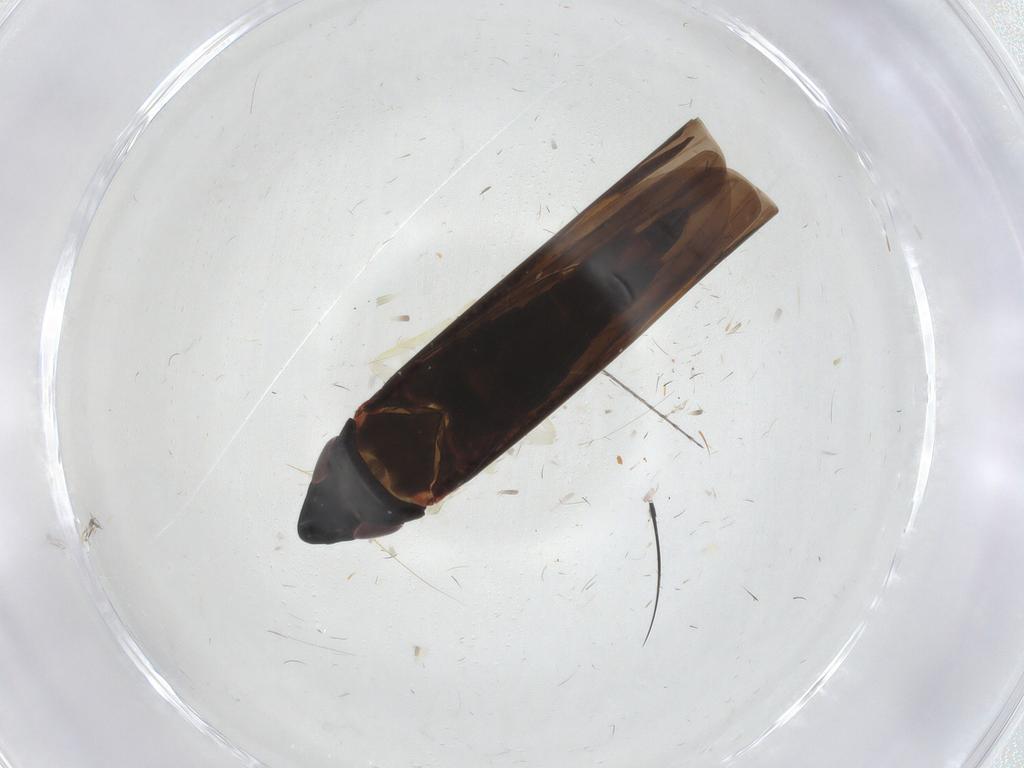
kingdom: Animalia
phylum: Arthropoda
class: Insecta
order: Hemiptera
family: Cicadellidae
